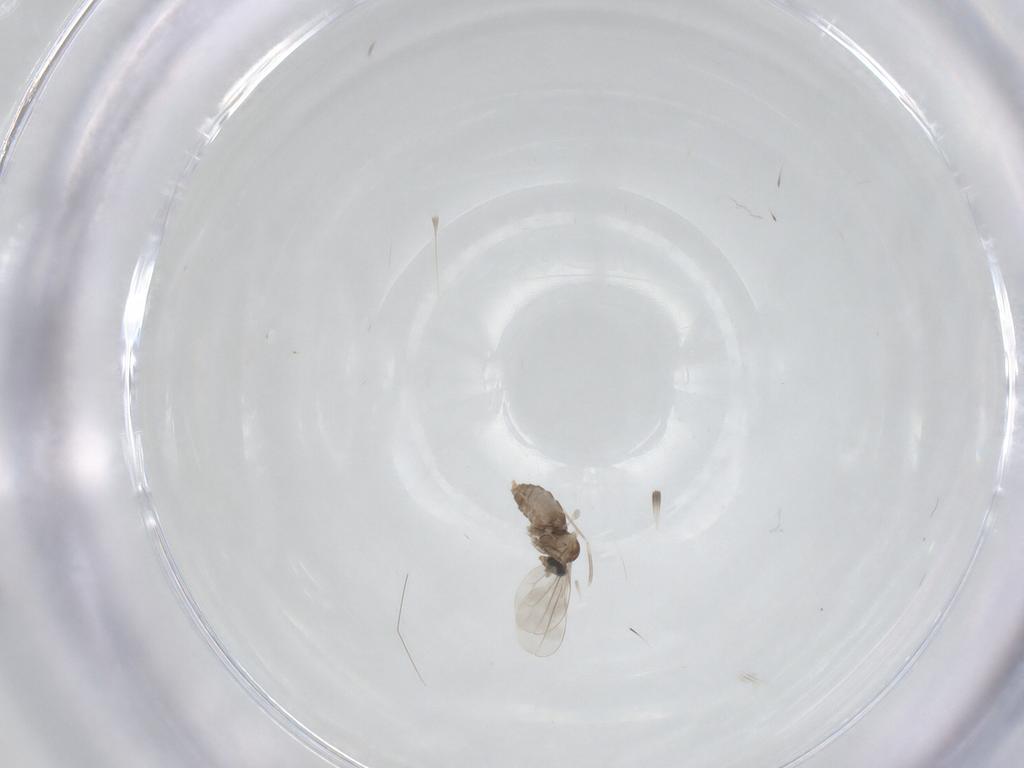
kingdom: Animalia
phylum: Arthropoda
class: Insecta
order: Diptera
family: Cecidomyiidae
